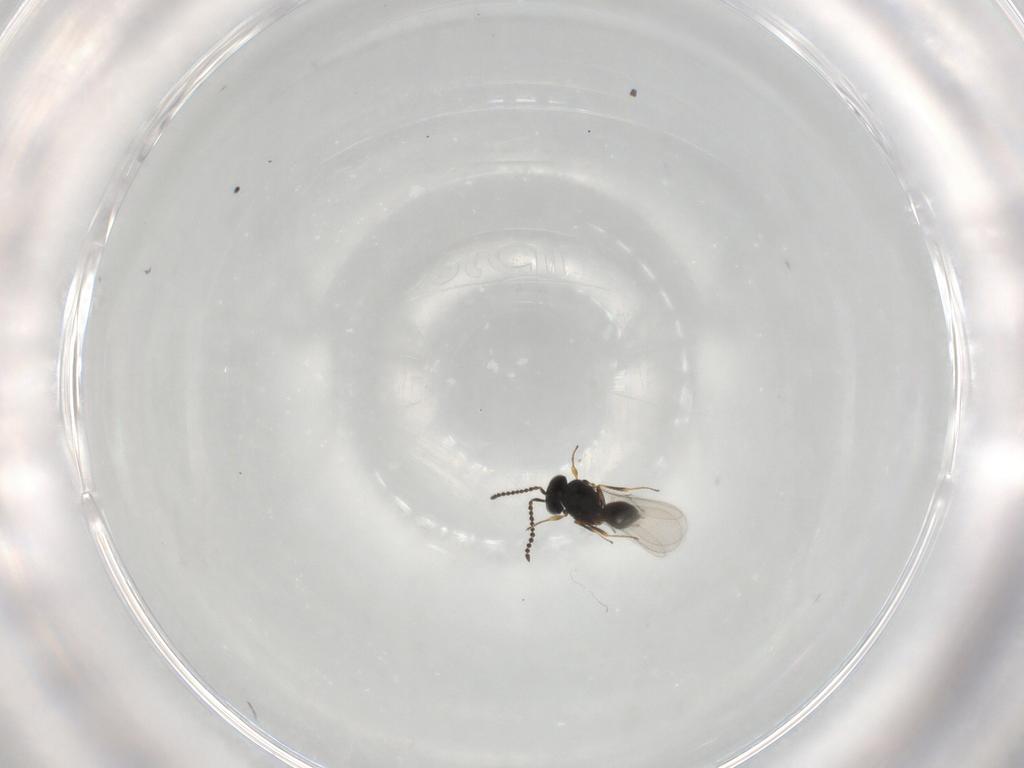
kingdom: Animalia
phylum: Arthropoda
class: Insecta
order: Hymenoptera
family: Scelionidae
